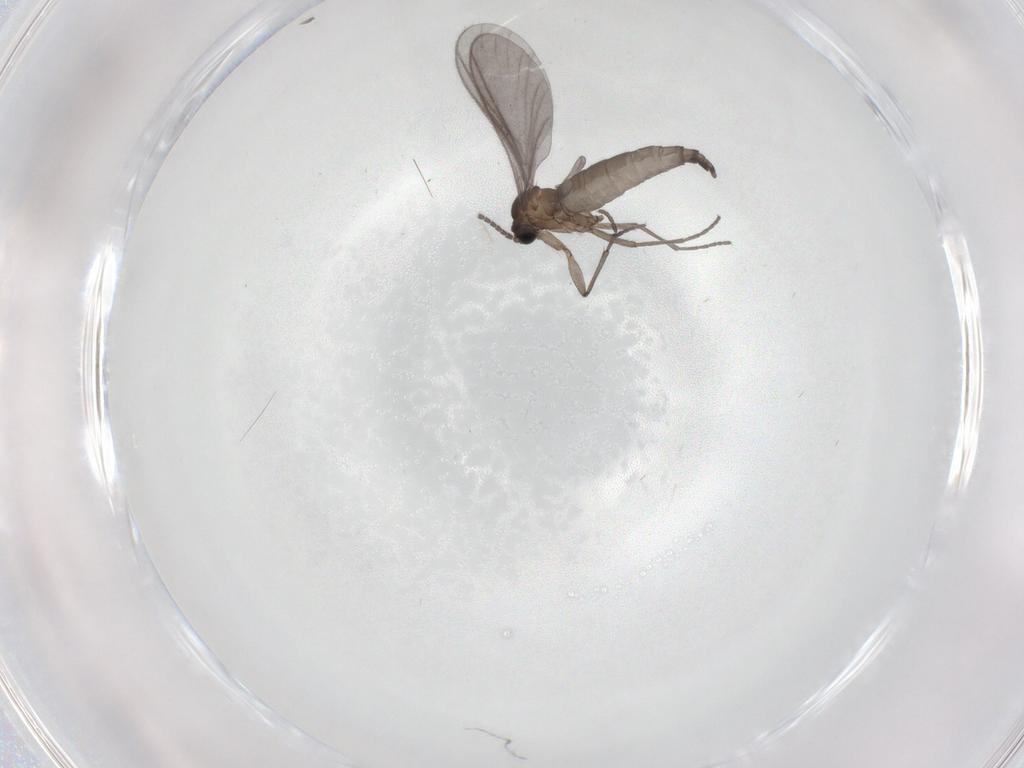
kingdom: Animalia
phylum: Arthropoda
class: Insecta
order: Diptera
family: Sciaridae
